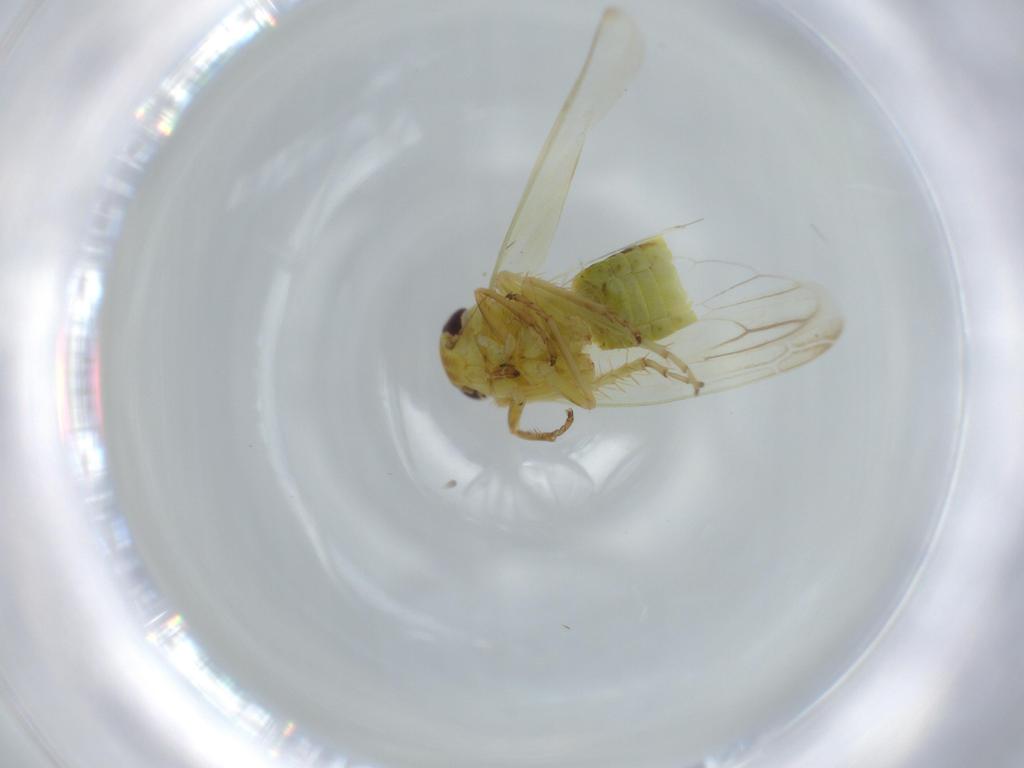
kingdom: Animalia
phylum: Arthropoda
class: Insecta
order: Hemiptera
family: Cicadellidae
